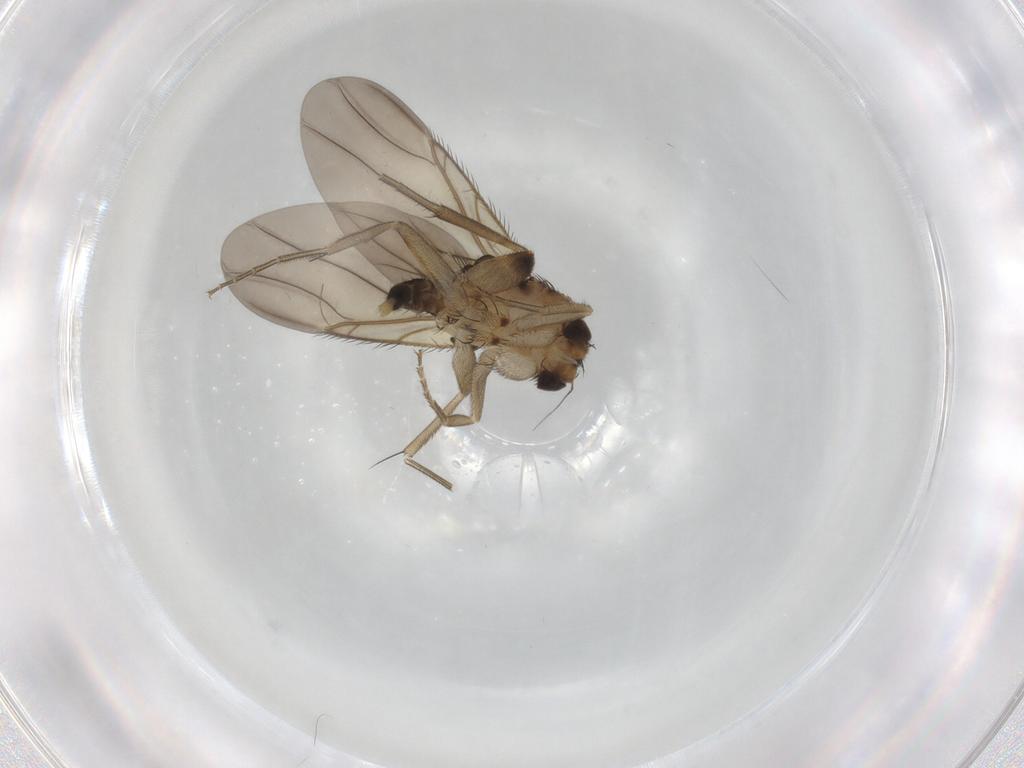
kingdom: Animalia
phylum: Arthropoda
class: Insecta
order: Diptera
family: Phoridae
